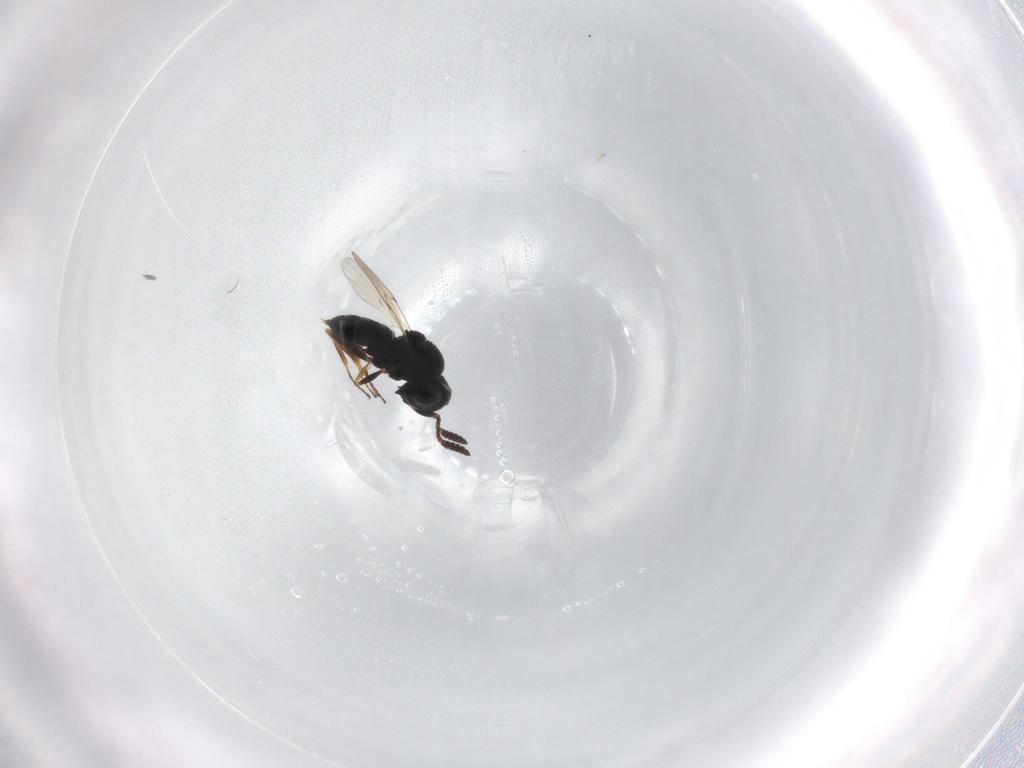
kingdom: Animalia
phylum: Arthropoda
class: Insecta
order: Hymenoptera
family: Scelionidae
